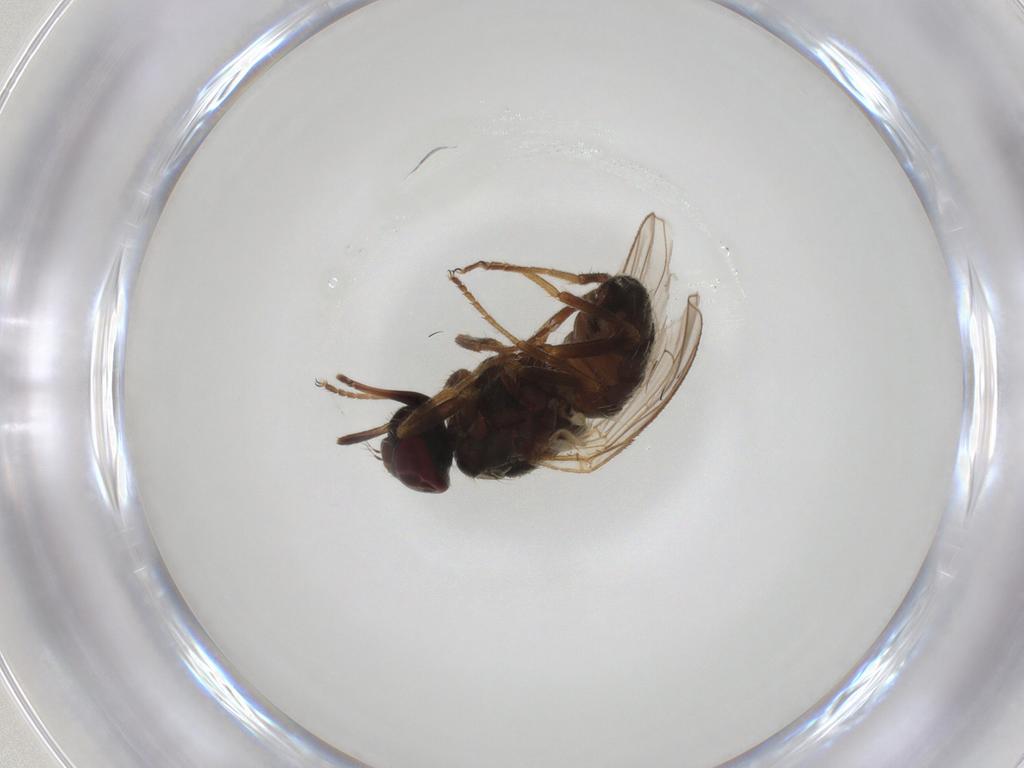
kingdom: Animalia
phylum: Arthropoda
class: Insecta
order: Diptera
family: Muscidae
